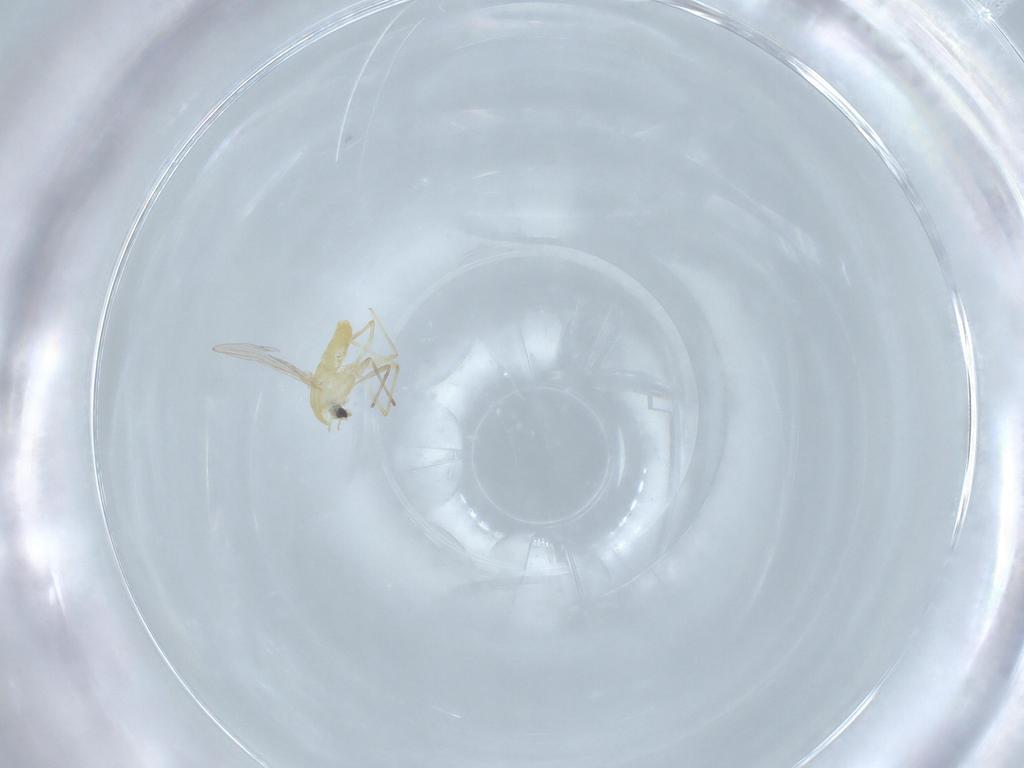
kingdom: Animalia
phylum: Arthropoda
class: Insecta
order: Diptera
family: Chironomidae
